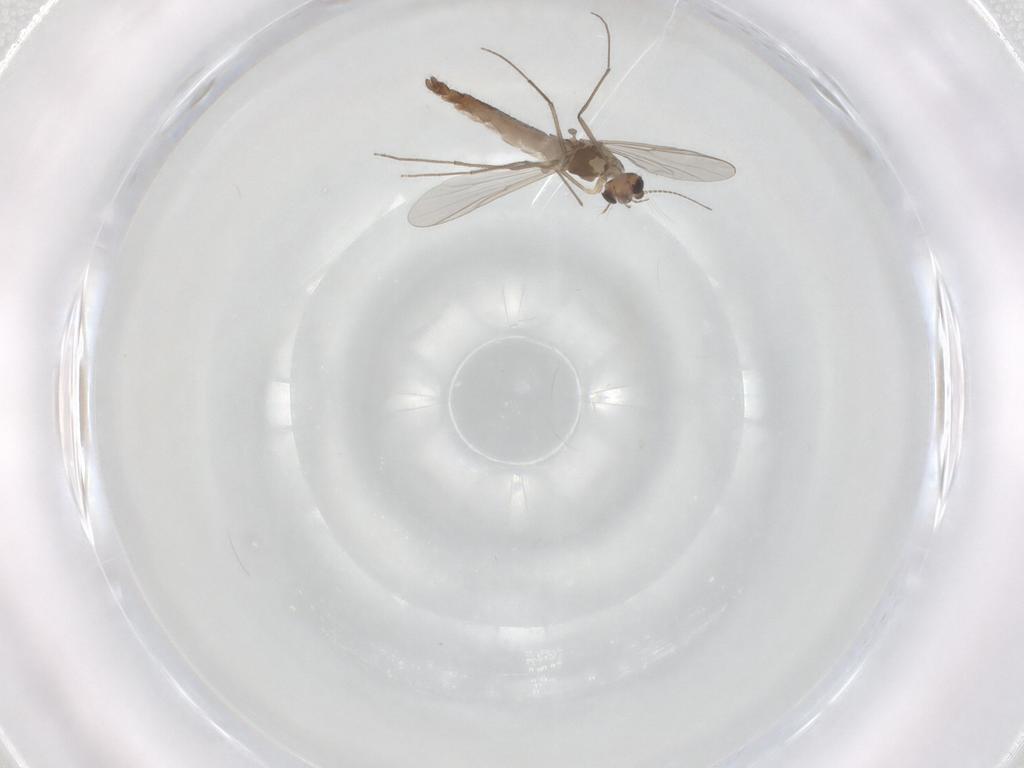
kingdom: Animalia
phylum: Arthropoda
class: Insecta
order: Diptera
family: Chironomidae
